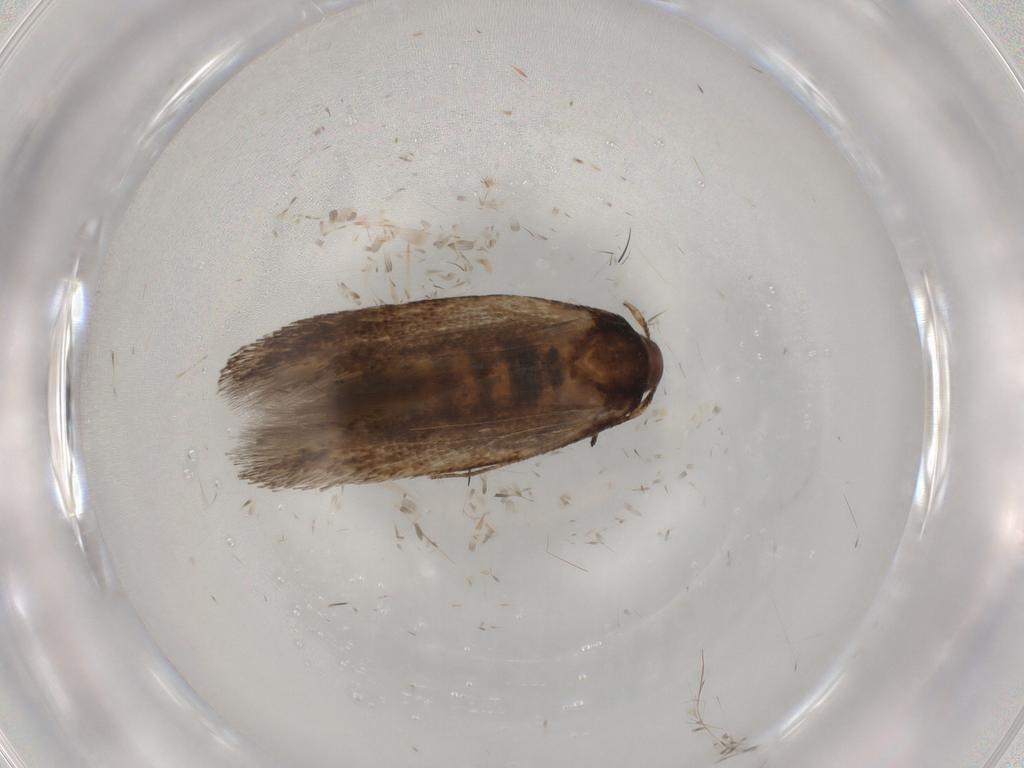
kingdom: Animalia
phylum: Arthropoda
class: Insecta
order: Lepidoptera
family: Cosmopterigidae
